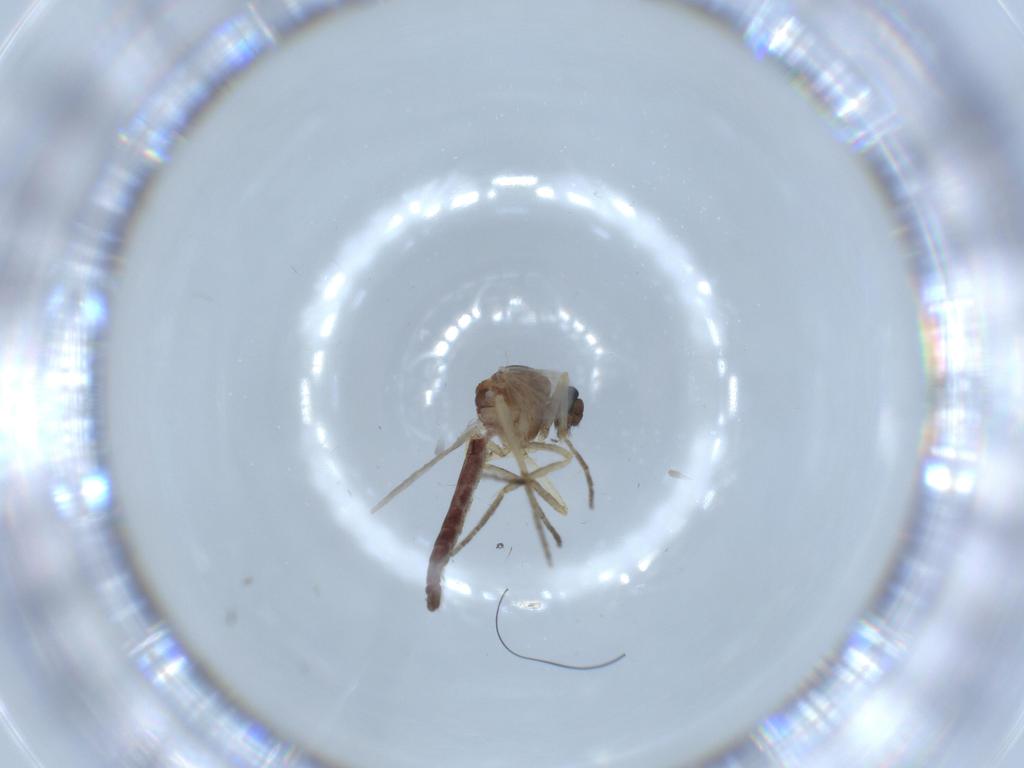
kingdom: Animalia
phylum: Arthropoda
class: Insecta
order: Diptera
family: Ceratopogonidae
